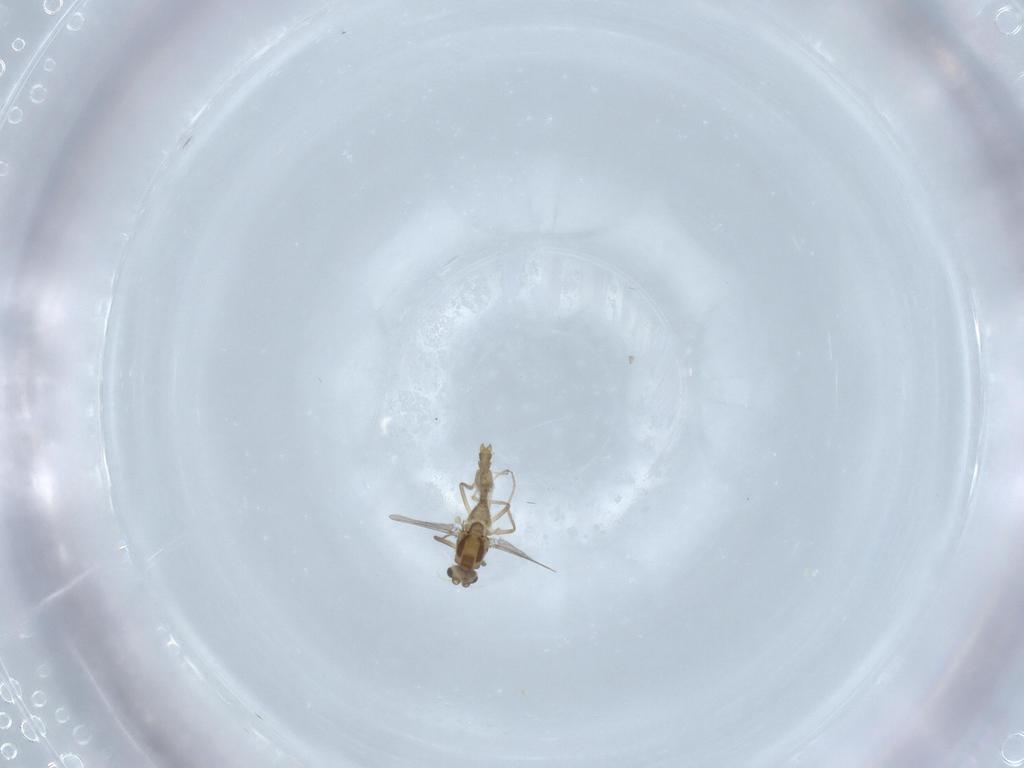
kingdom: Animalia
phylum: Arthropoda
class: Insecta
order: Diptera
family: Chironomidae
